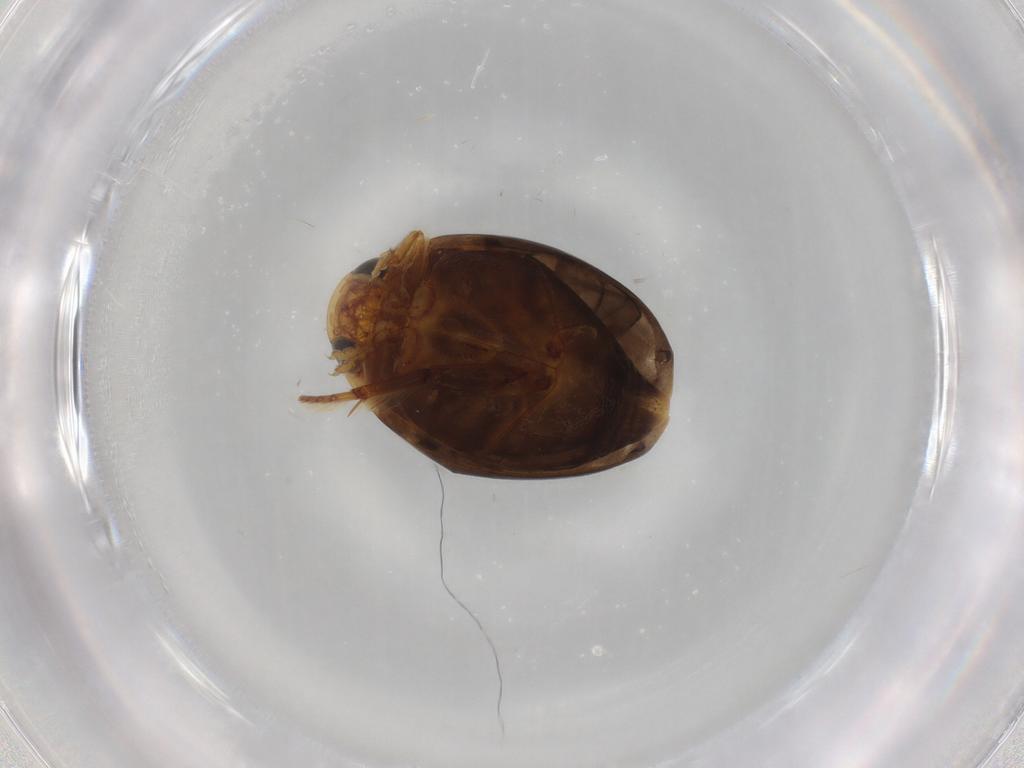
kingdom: Animalia
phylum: Arthropoda
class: Insecta
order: Coleoptera
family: Dytiscidae
